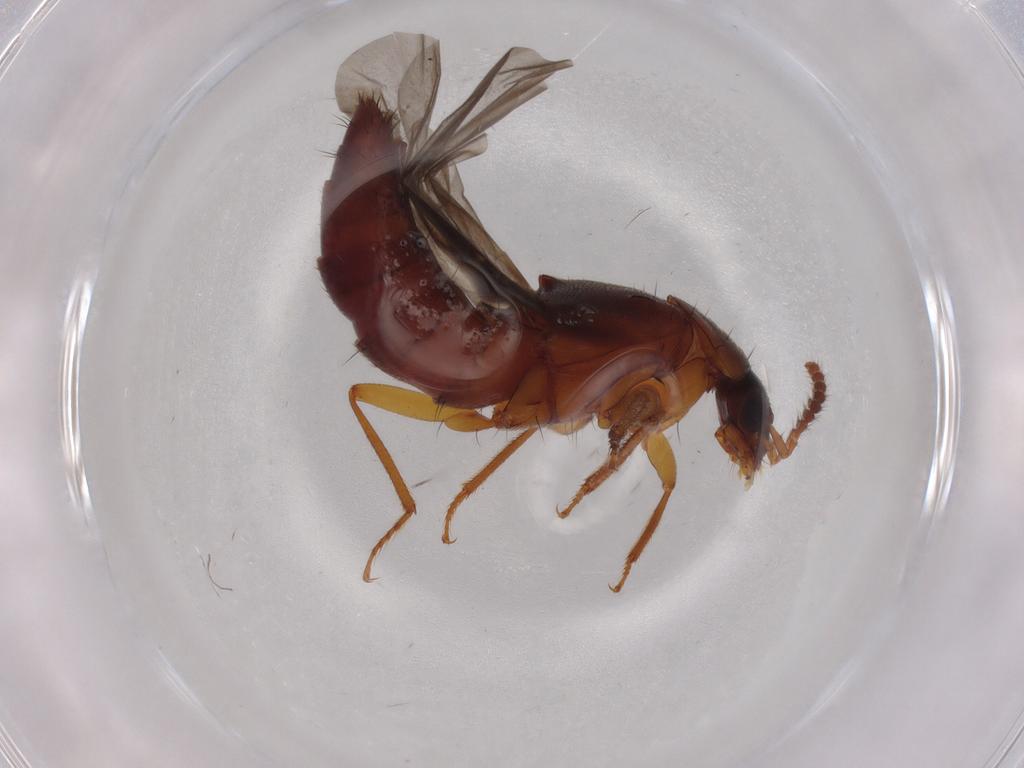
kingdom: Animalia
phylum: Arthropoda
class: Insecta
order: Coleoptera
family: Staphylinidae
